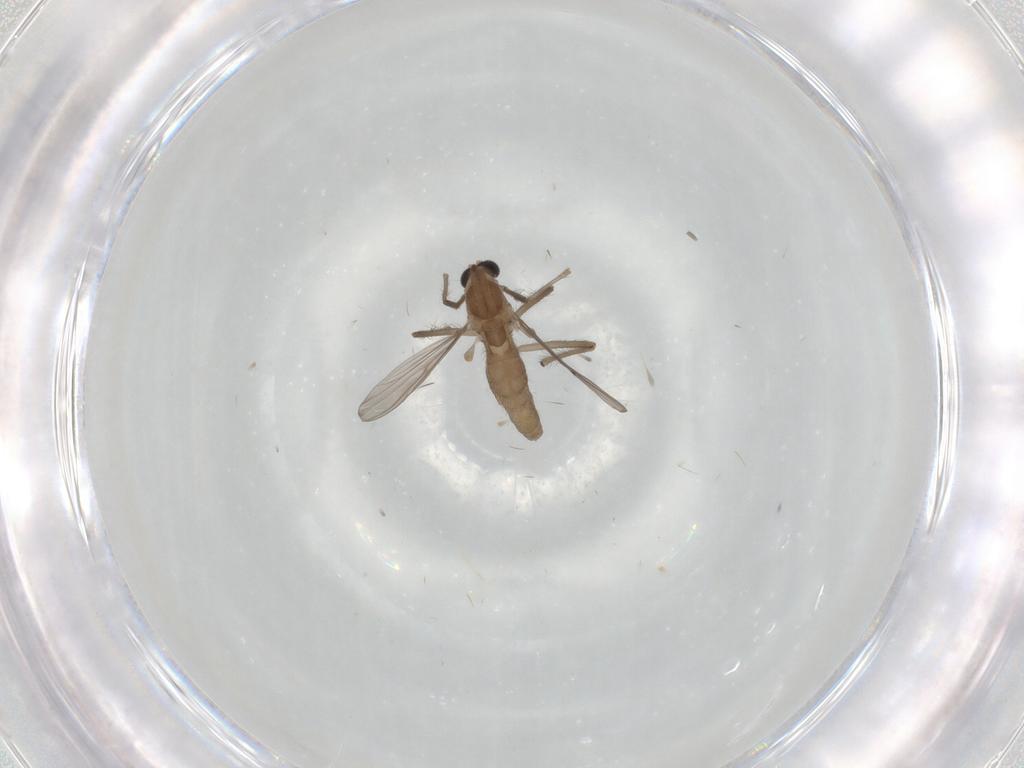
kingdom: Animalia
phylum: Arthropoda
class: Insecta
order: Diptera
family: Chironomidae
